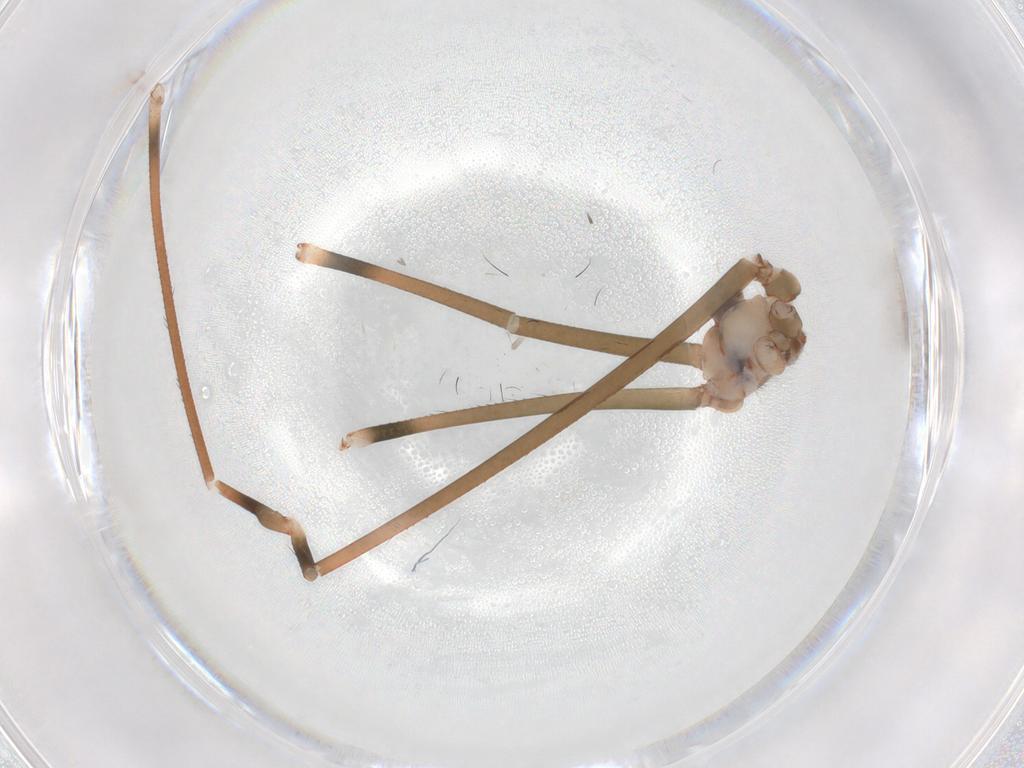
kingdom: Animalia
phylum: Arthropoda
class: Arachnida
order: Araneae
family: Pholcidae
